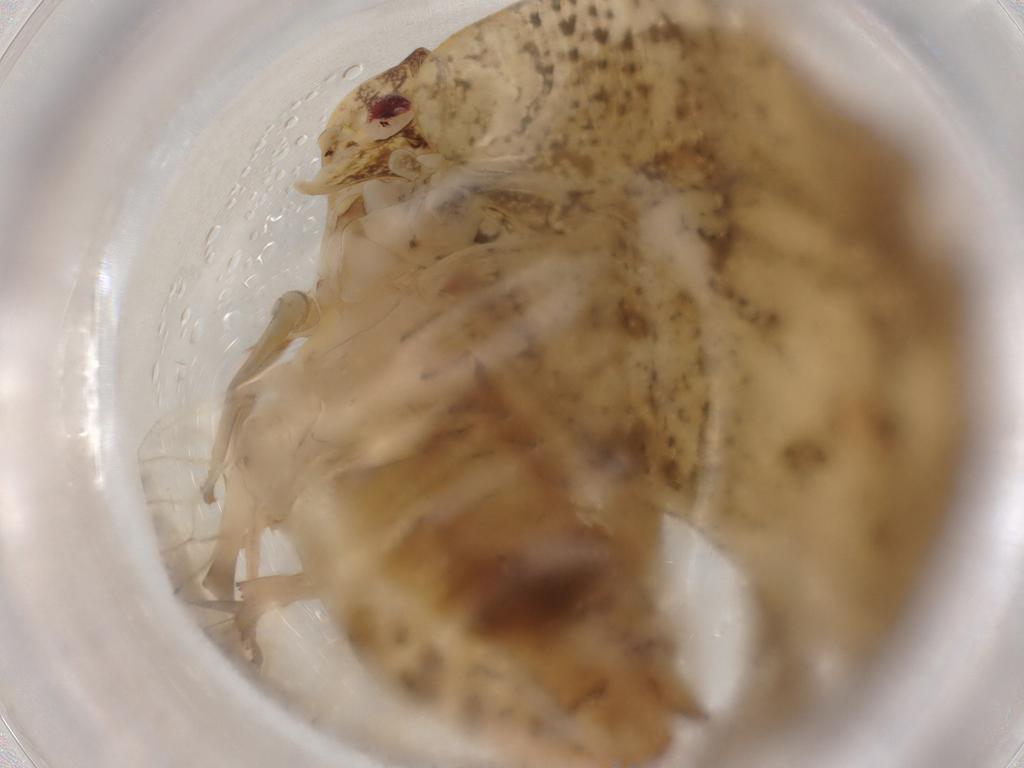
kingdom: Animalia
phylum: Arthropoda
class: Insecta
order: Hemiptera
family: Flatidae
